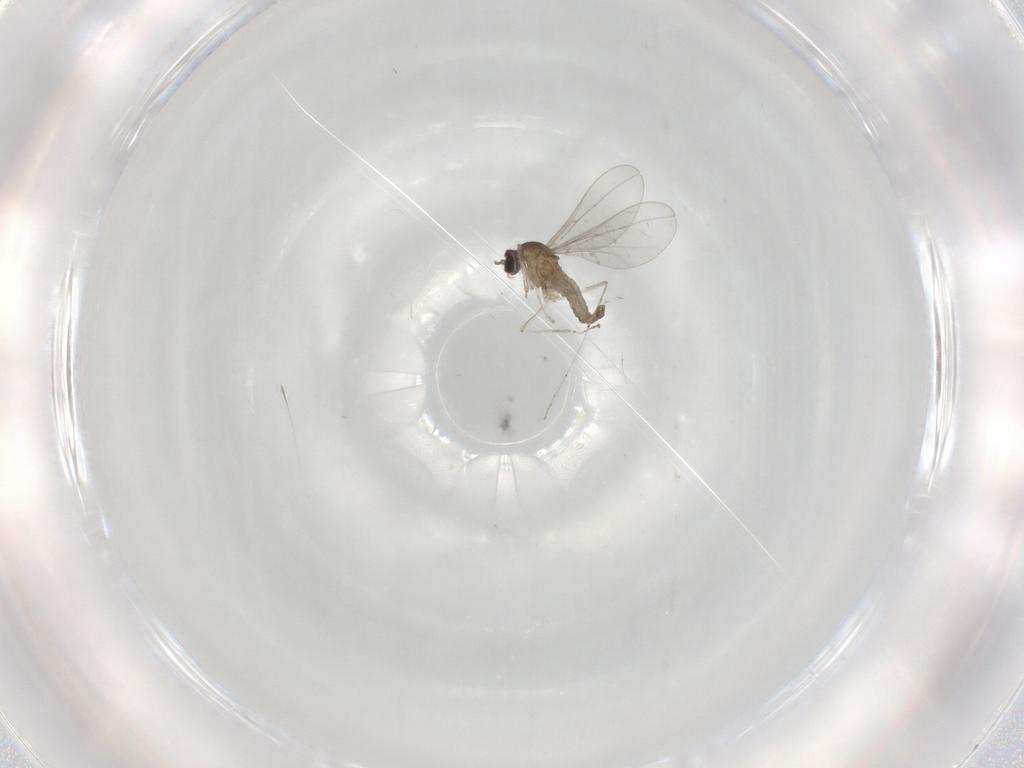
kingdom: Animalia
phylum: Arthropoda
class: Insecta
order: Diptera
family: Cecidomyiidae
